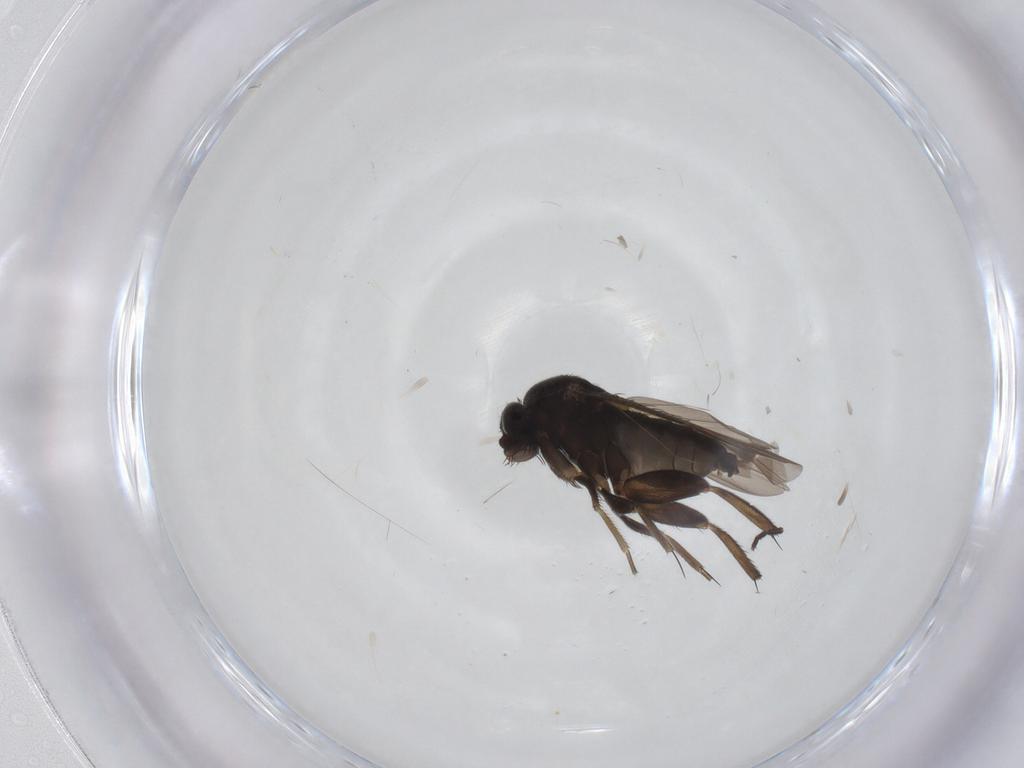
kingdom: Animalia
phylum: Arthropoda
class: Insecta
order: Diptera
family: Phoridae
